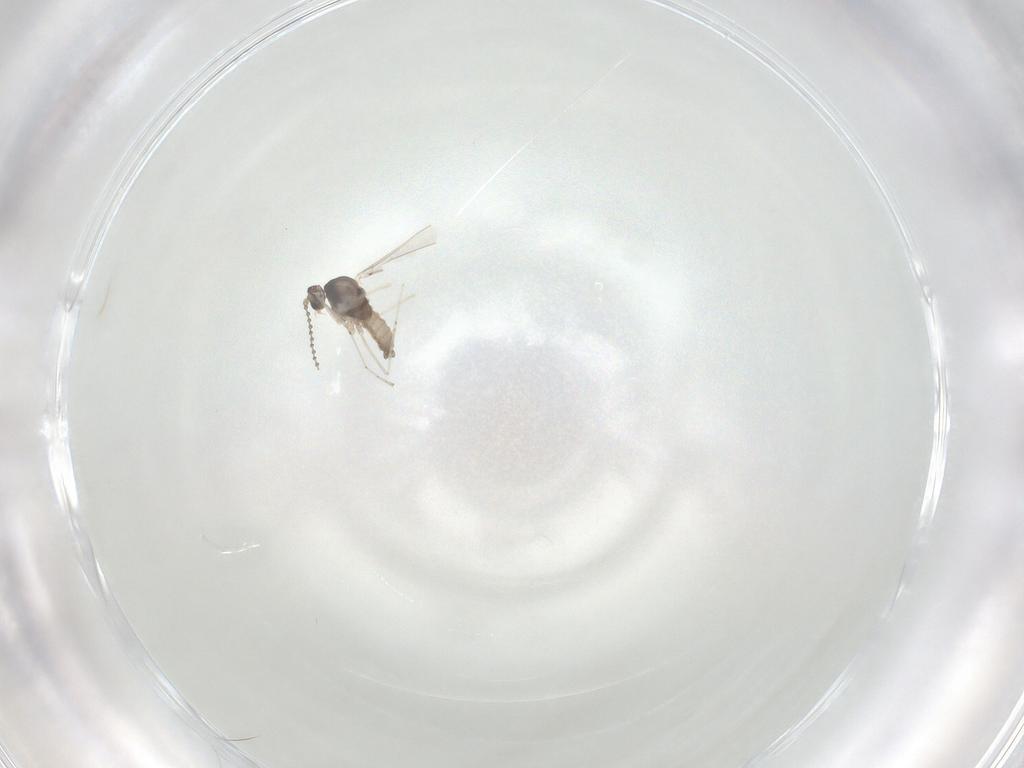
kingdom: Animalia
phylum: Arthropoda
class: Insecta
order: Diptera
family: Cecidomyiidae
